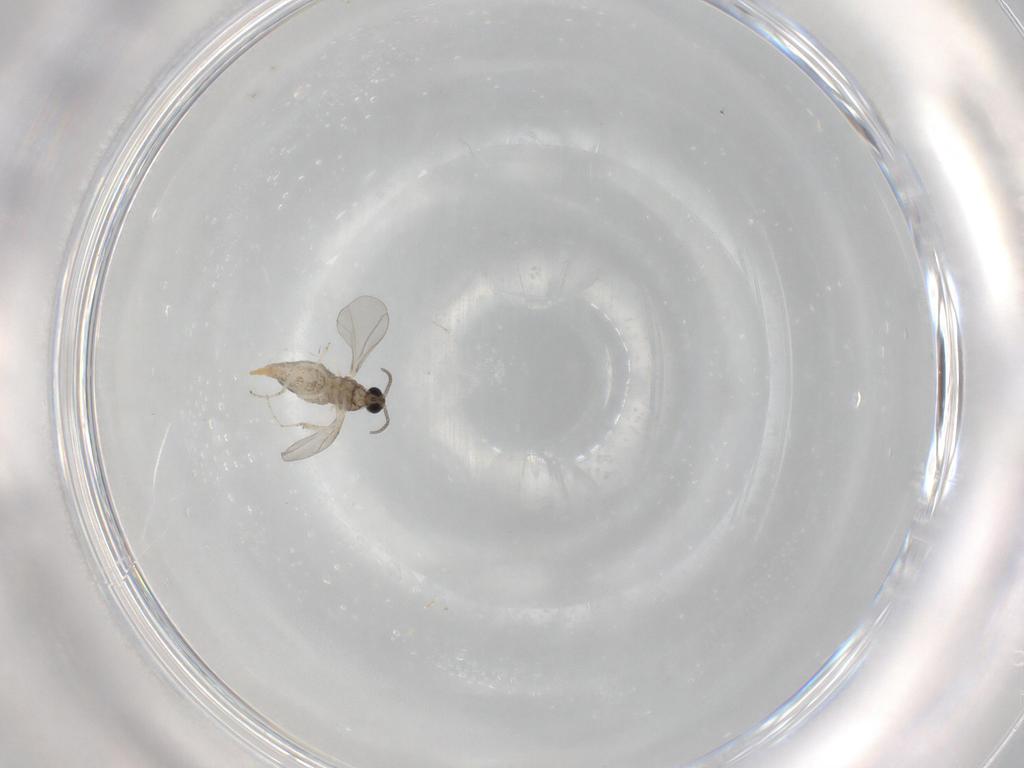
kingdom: Animalia
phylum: Arthropoda
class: Insecta
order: Diptera
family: Cecidomyiidae
